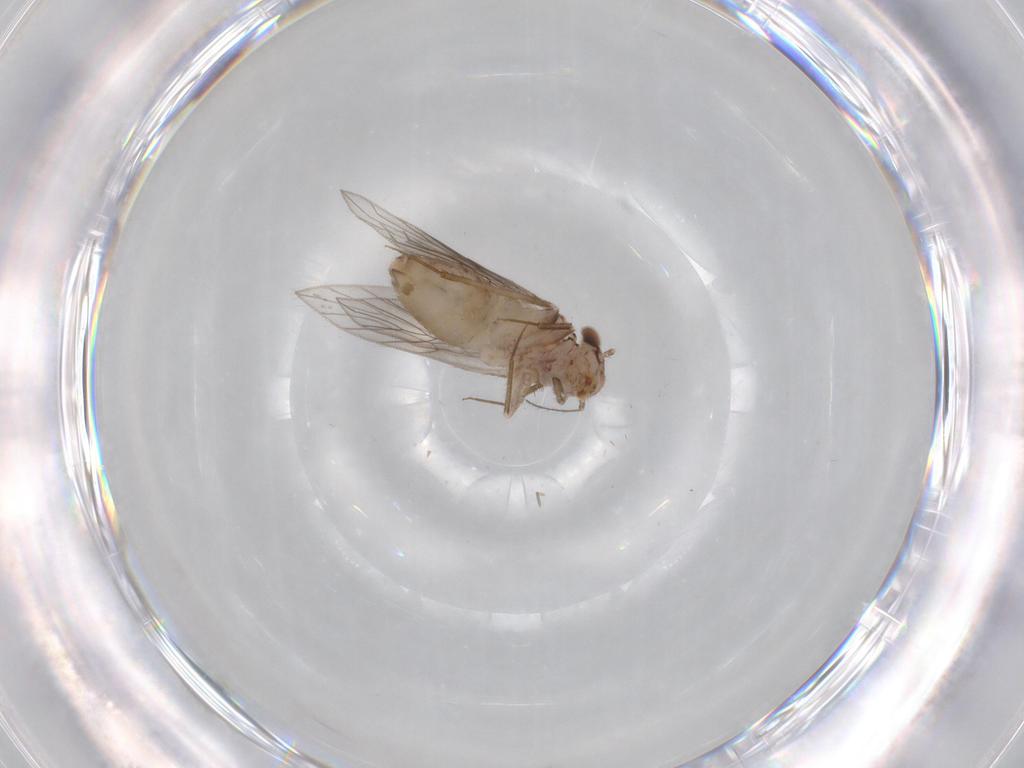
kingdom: Animalia
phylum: Arthropoda
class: Insecta
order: Psocodea
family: Lepidopsocidae
